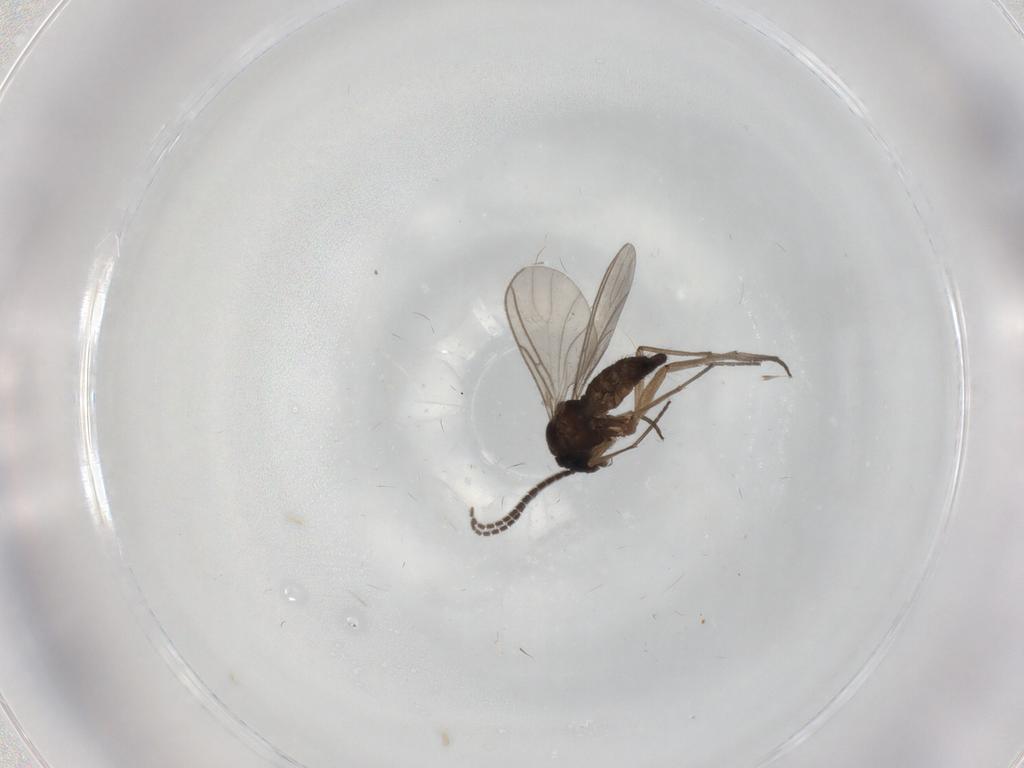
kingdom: Animalia
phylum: Arthropoda
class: Insecta
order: Diptera
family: Sciaridae
